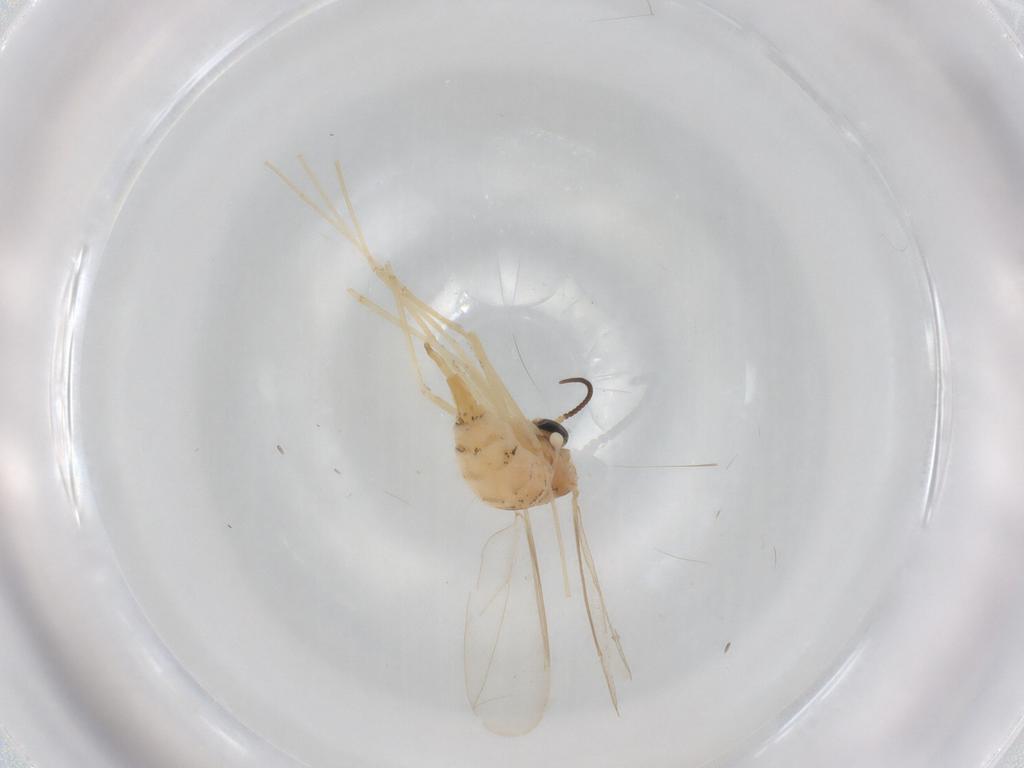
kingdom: Animalia
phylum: Arthropoda
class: Insecta
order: Diptera
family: Cecidomyiidae
